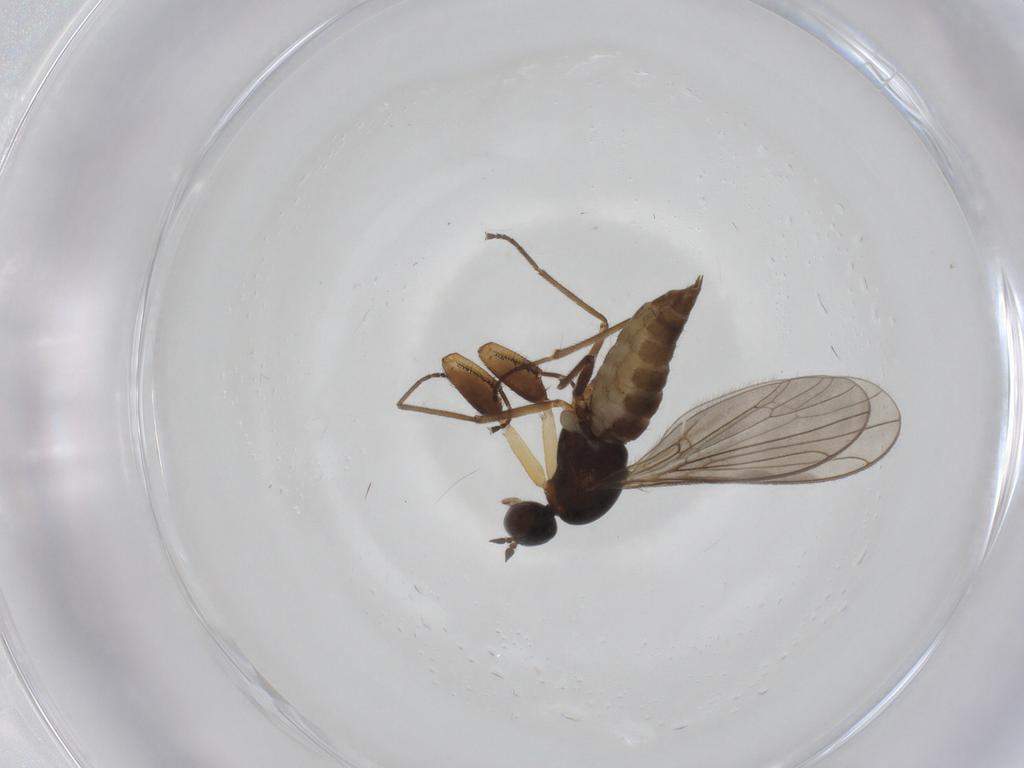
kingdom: Animalia
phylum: Arthropoda
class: Insecta
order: Diptera
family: Empididae
